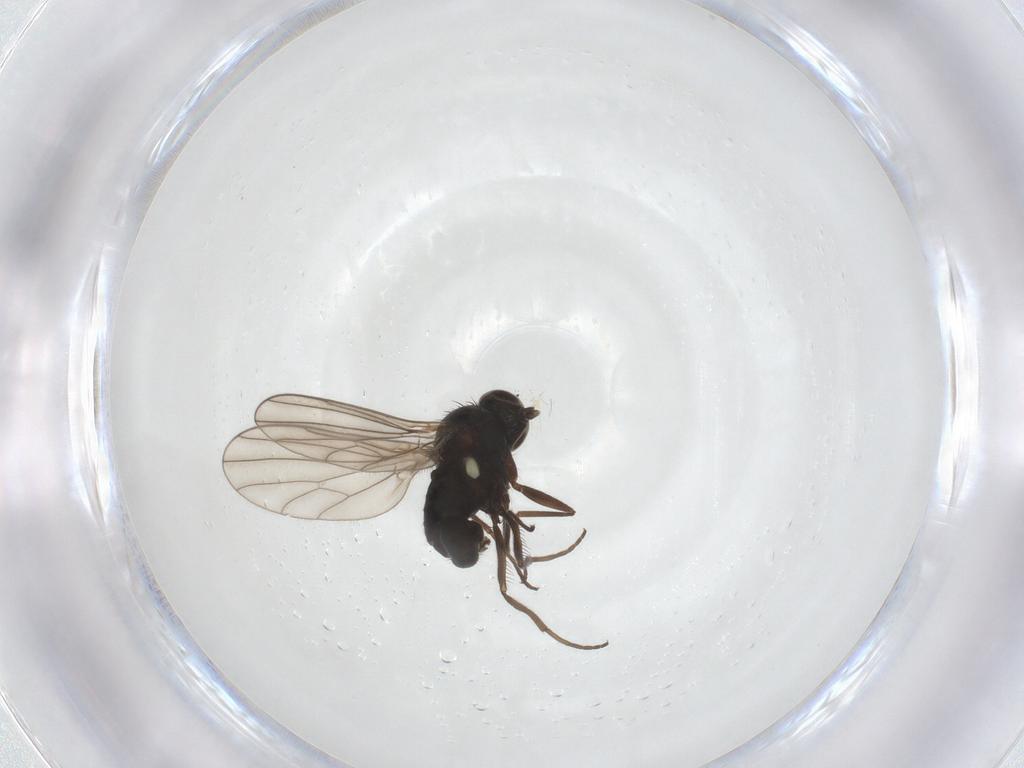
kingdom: Animalia
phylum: Arthropoda
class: Insecta
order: Diptera
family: Dolichopodidae
